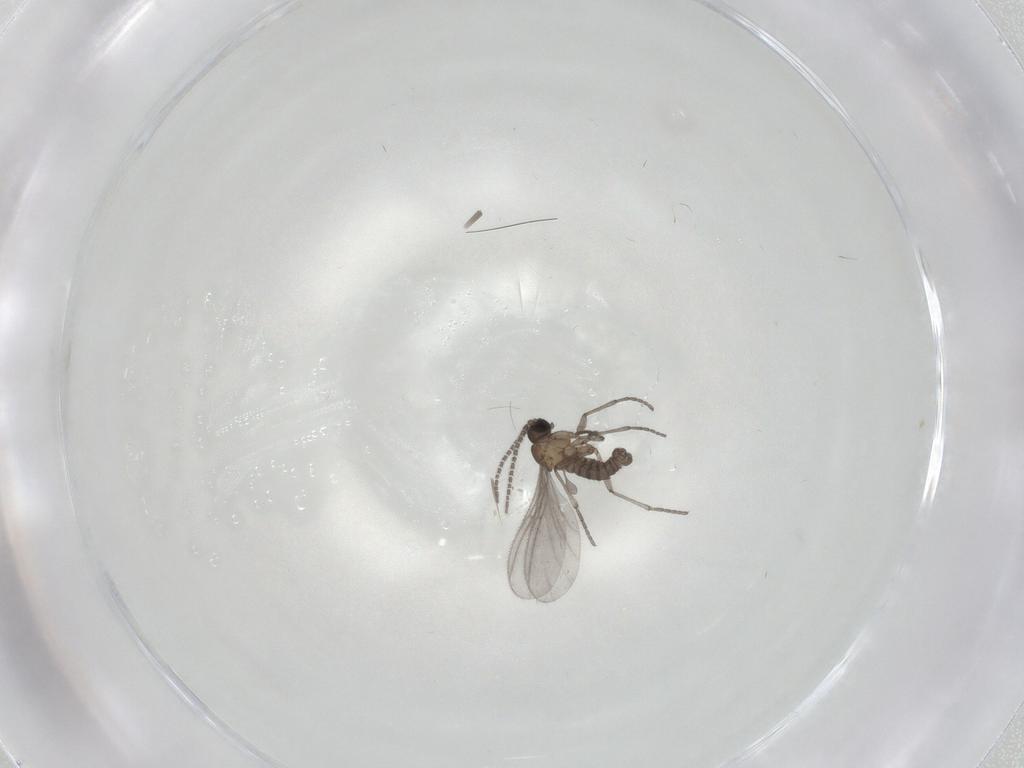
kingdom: Animalia
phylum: Arthropoda
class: Insecta
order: Diptera
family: Sciaridae
